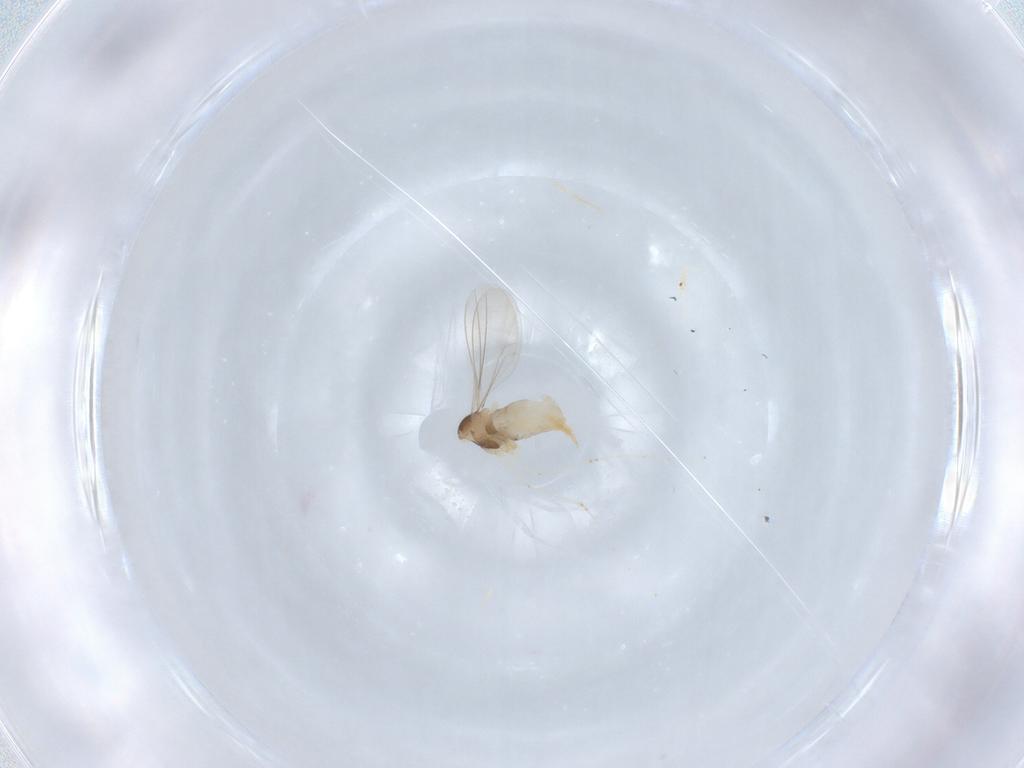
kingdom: Animalia
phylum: Arthropoda
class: Insecta
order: Diptera
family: Cecidomyiidae
